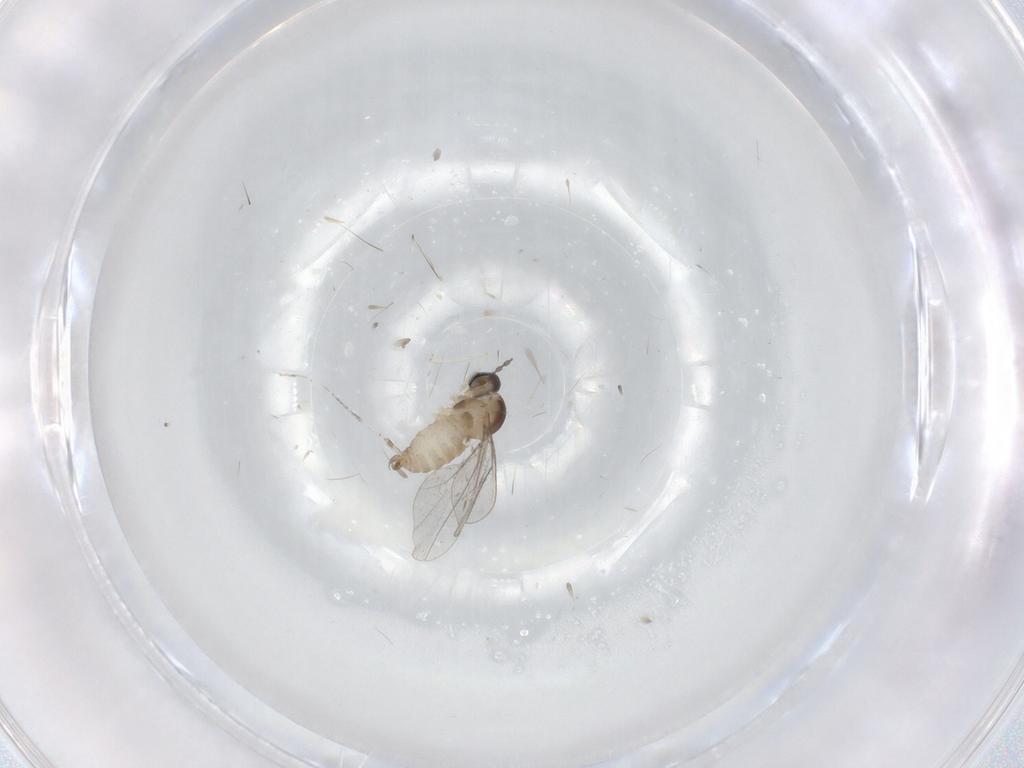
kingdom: Animalia
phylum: Arthropoda
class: Insecta
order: Diptera
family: Cecidomyiidae
